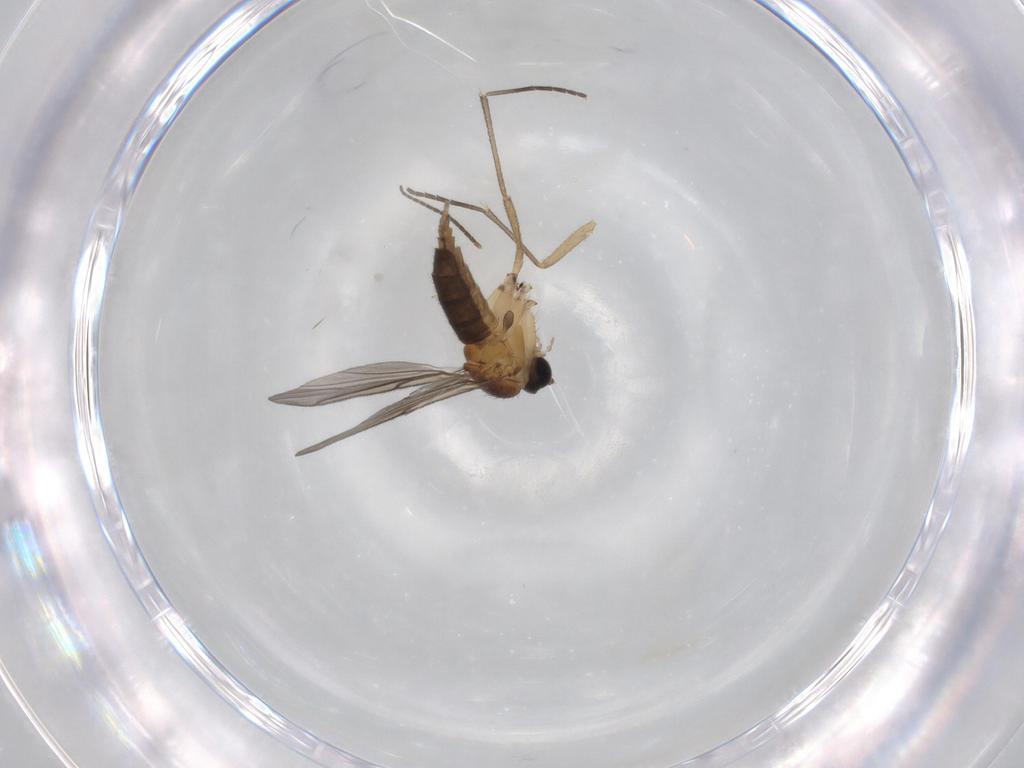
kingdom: Animalia
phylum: Arthropoda
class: Insecta
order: Diptera
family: Sciaridae
